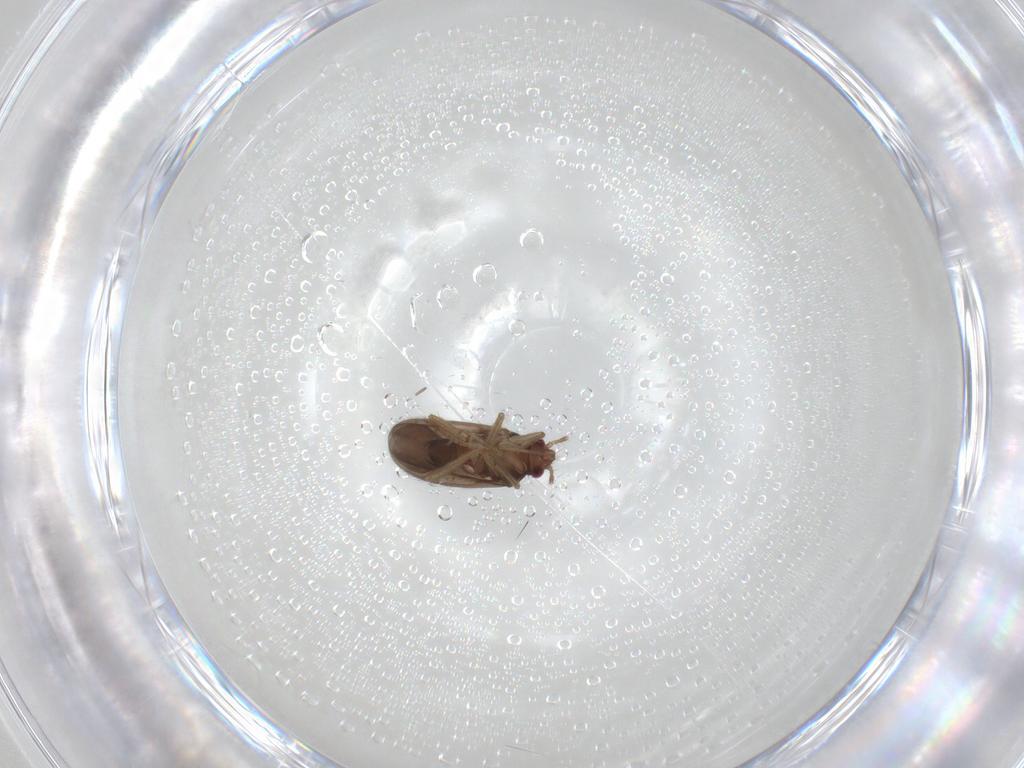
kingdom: Animalia
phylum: Arthropoda
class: Insecta
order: Hemiptera
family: Ceratocombidae
